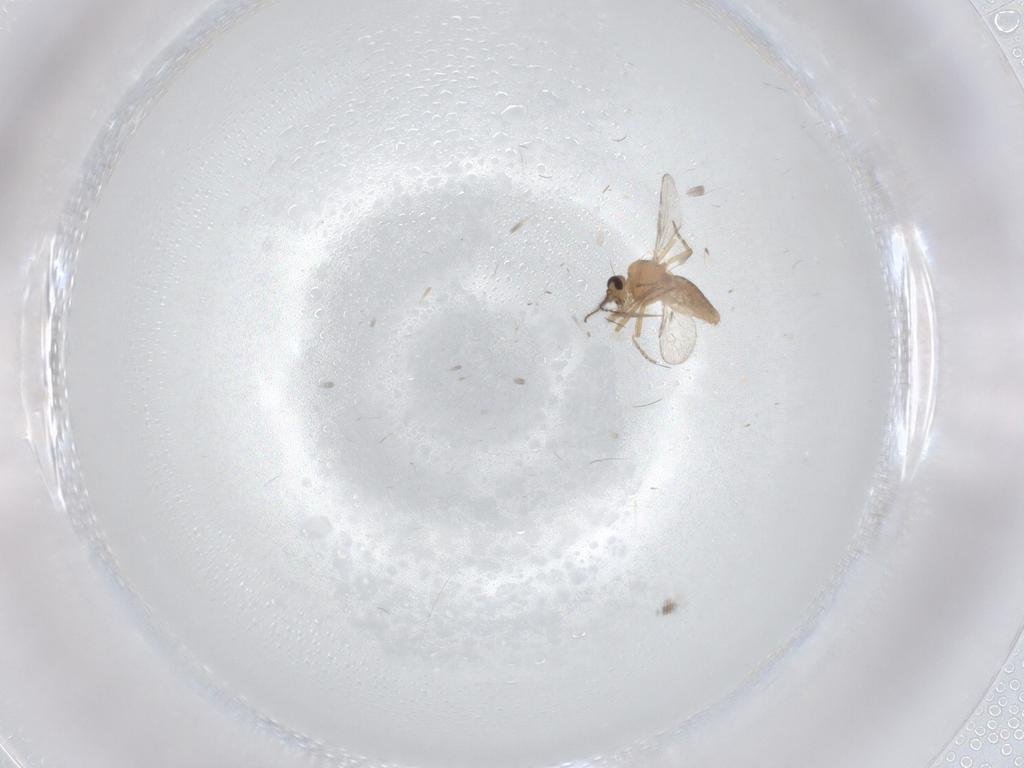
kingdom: Animalia
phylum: Arthropoda
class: Insecta
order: Diptera
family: Ceratopogonidae
